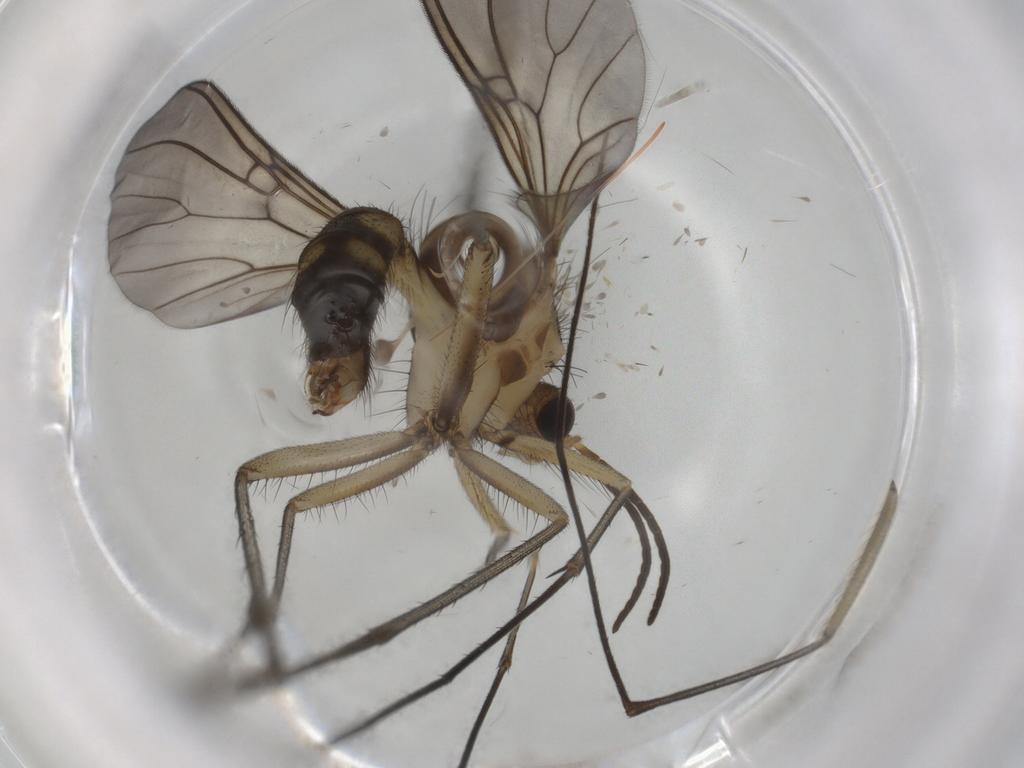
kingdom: Animalia
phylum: Arthropoda
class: Insecta
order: Diptera
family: Mycetophilidae
